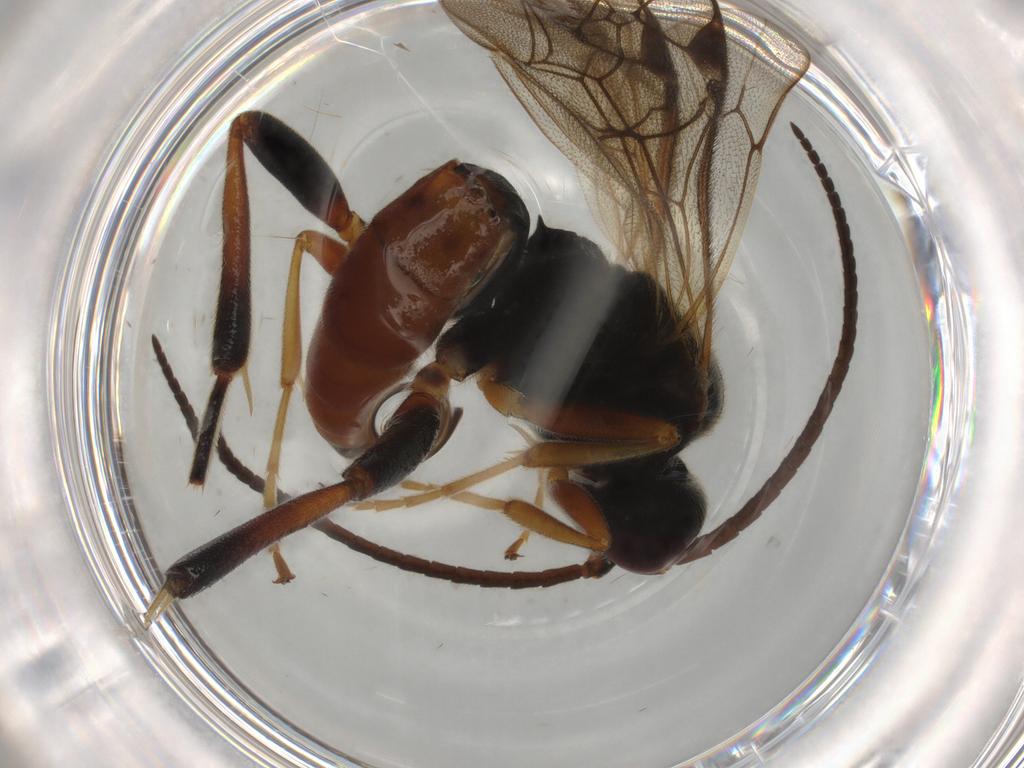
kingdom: Animalia
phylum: Arthropoda
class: Insecta
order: Hymenoptera
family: Ichneumonidae
